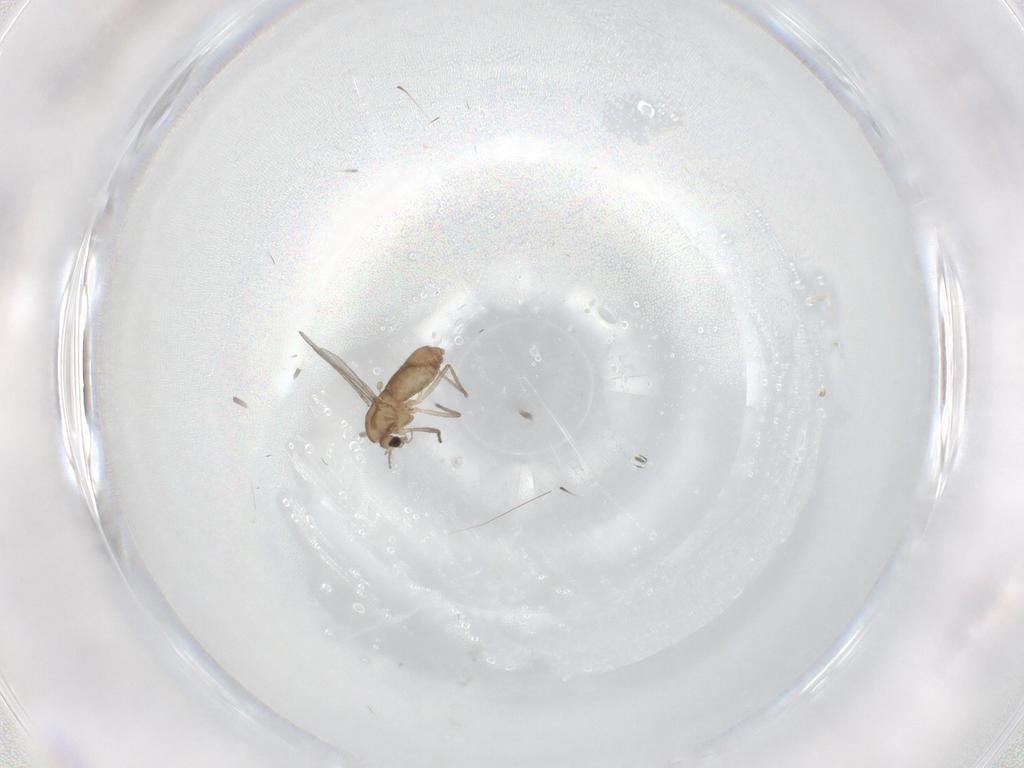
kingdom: Animalia
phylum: Arthropoda
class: Insecta
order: Diptera
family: Chironomidae
